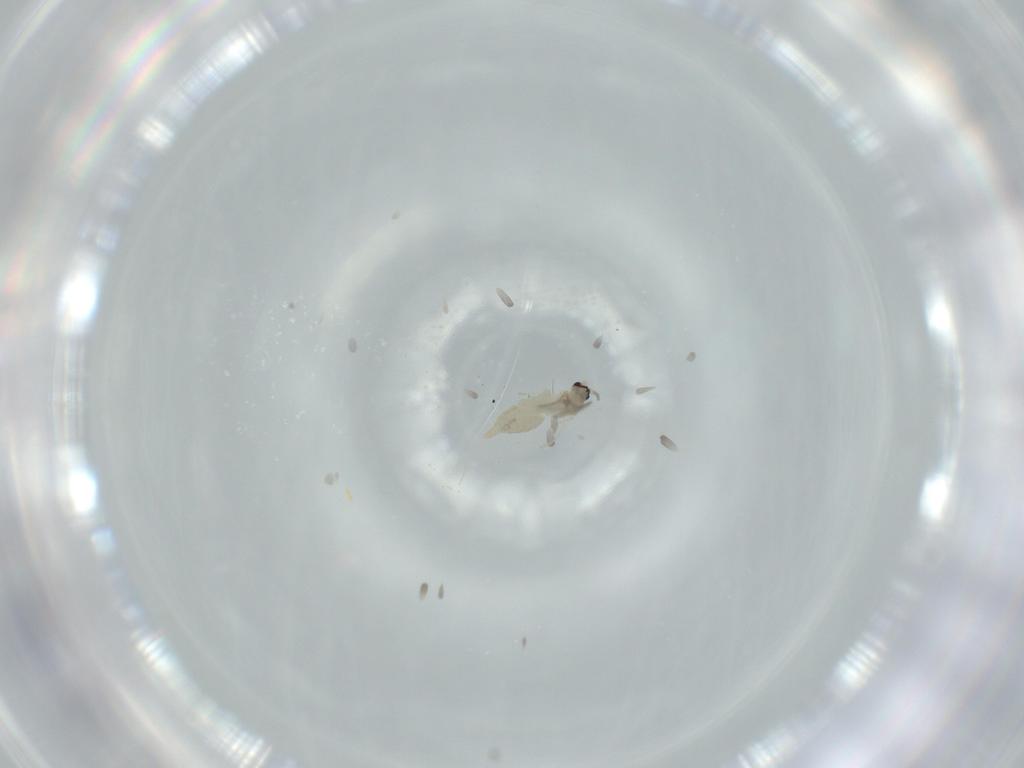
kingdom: Animalia
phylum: Arthropoda
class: Insecta
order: Diptera
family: Cecidomyiidae
